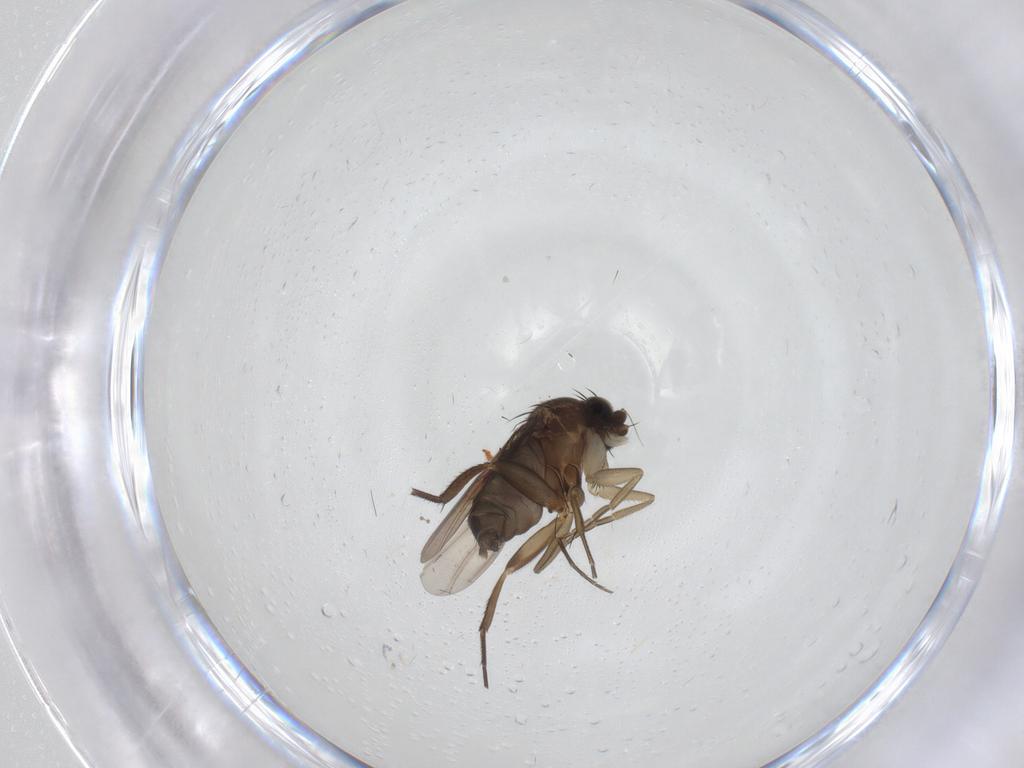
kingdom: Animalia
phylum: Arthropoda
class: Insecta
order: Diptera
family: Phoridae
